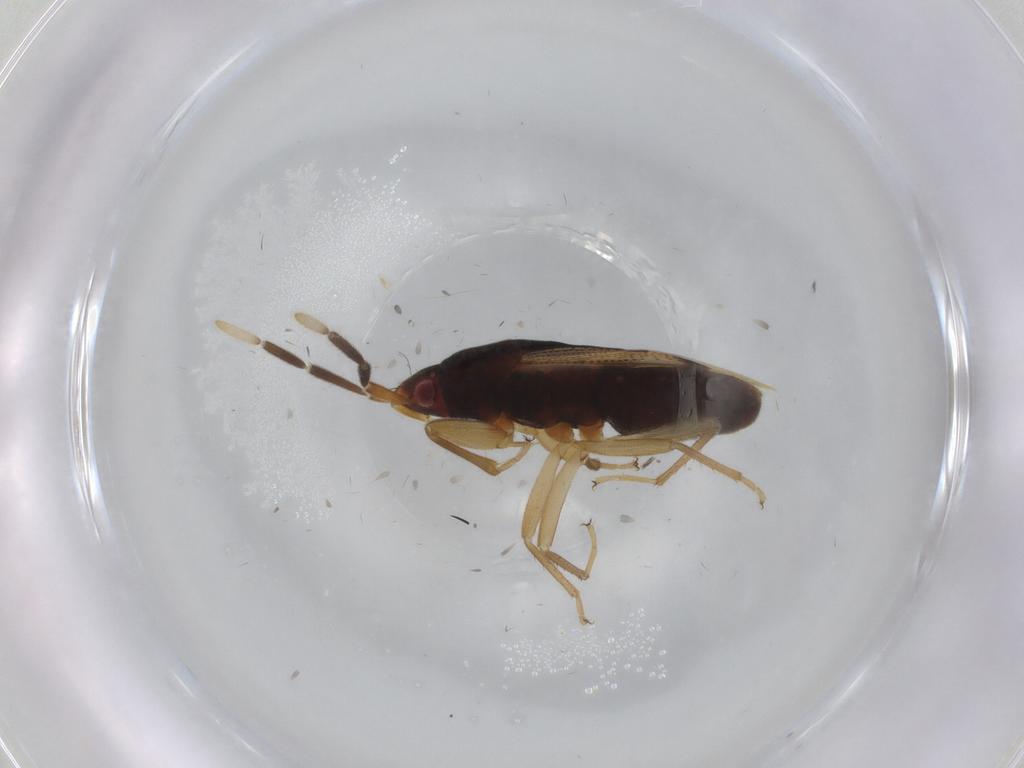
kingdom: Animalia
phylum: Arthropoda
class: Insecta
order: Hemiptera
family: Rhyparochromidae
